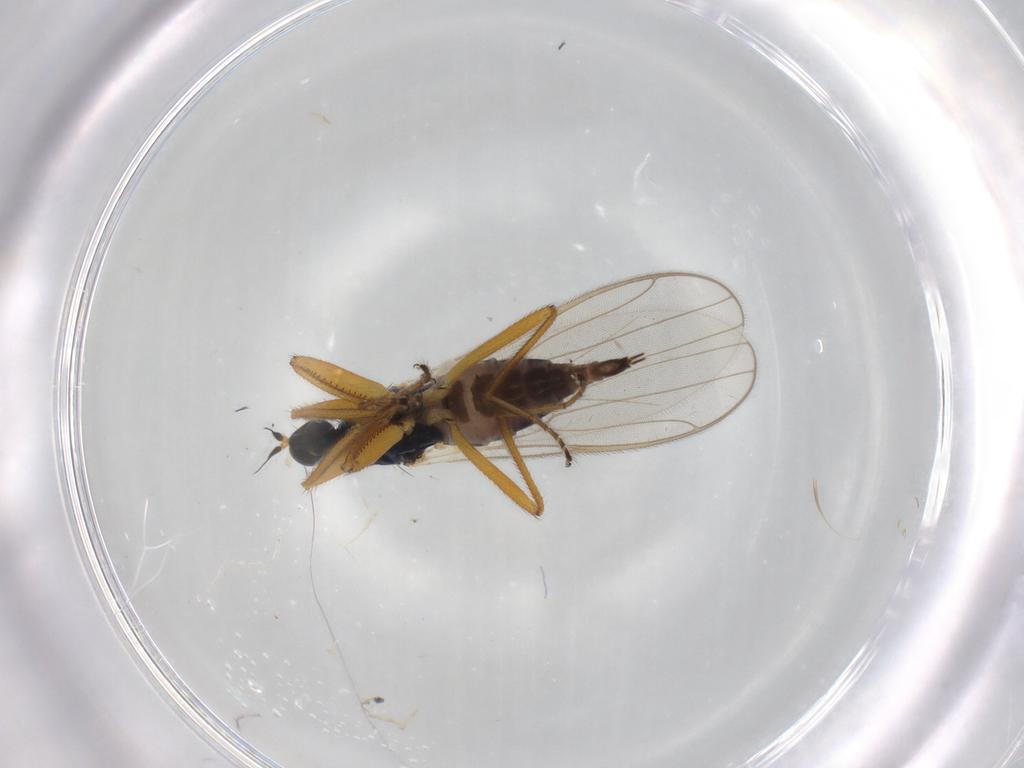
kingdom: Animalia
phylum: Arthropoda
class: Insecta
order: Diptera
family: Hybotidae
